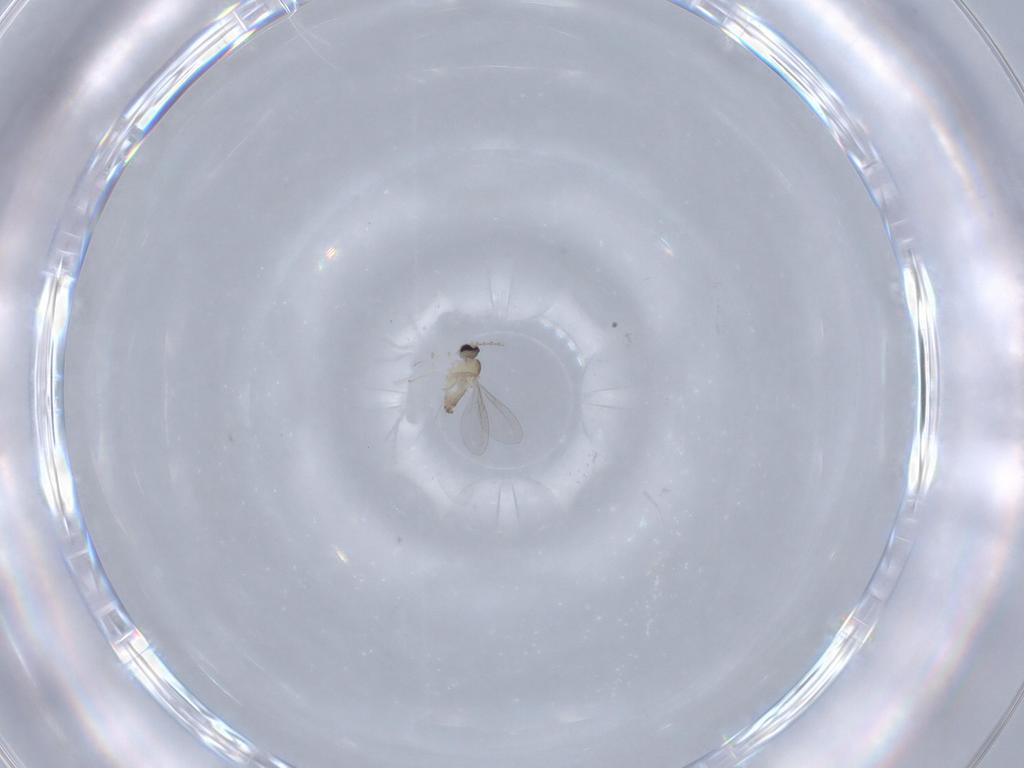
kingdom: Animalia
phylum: Arthropoda
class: Insecta
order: Diptera
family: Cecidomyiidae
